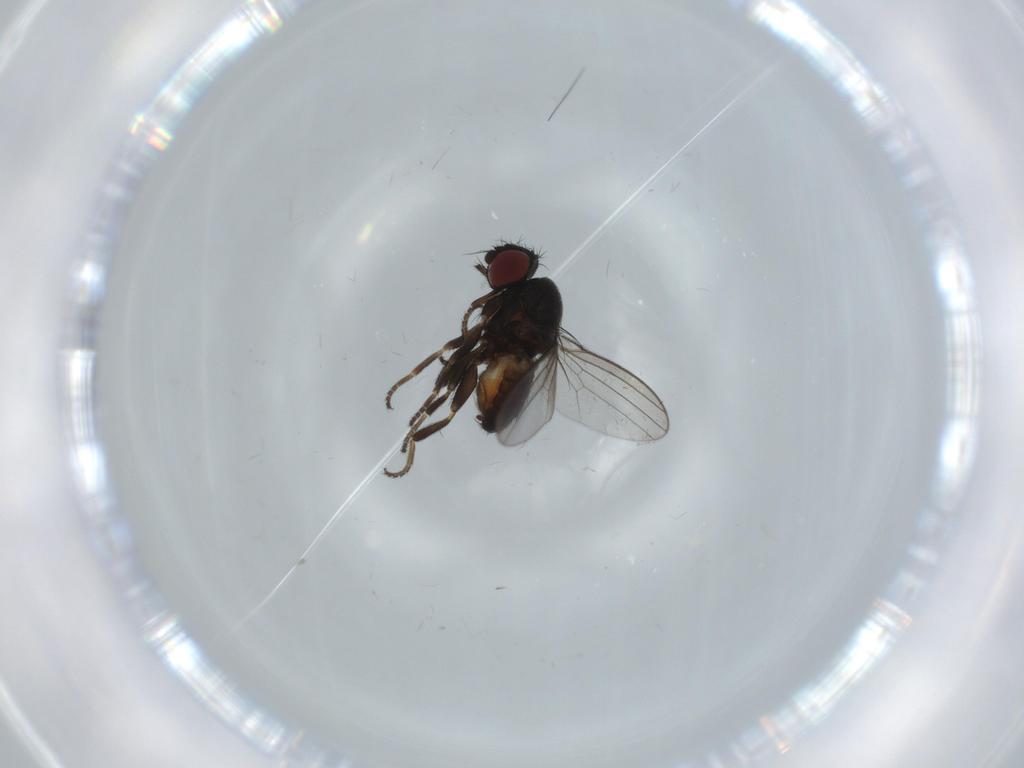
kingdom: Animalia
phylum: Arthropoda
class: Insecta
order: Diptera
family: Milichiidae
